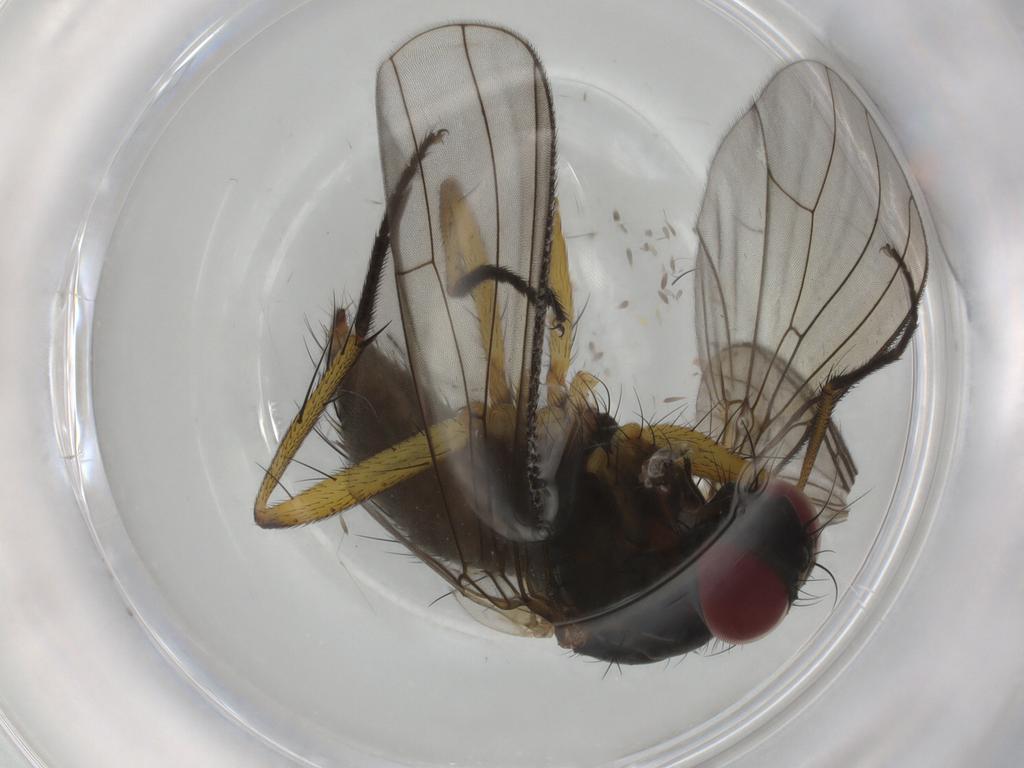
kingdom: Animalia
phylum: Arthropoda
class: Insecta
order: Diptera
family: Muscidae
